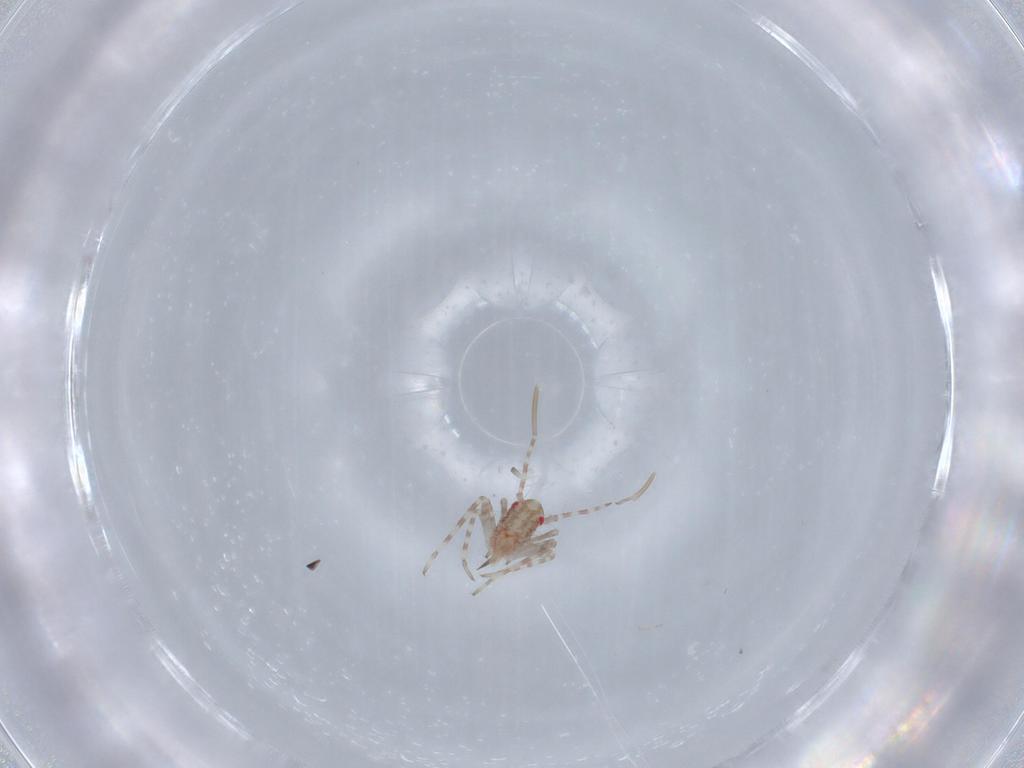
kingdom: Animalia
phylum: Arthropoda
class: Insecta
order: Hemiptera
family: Miridae
